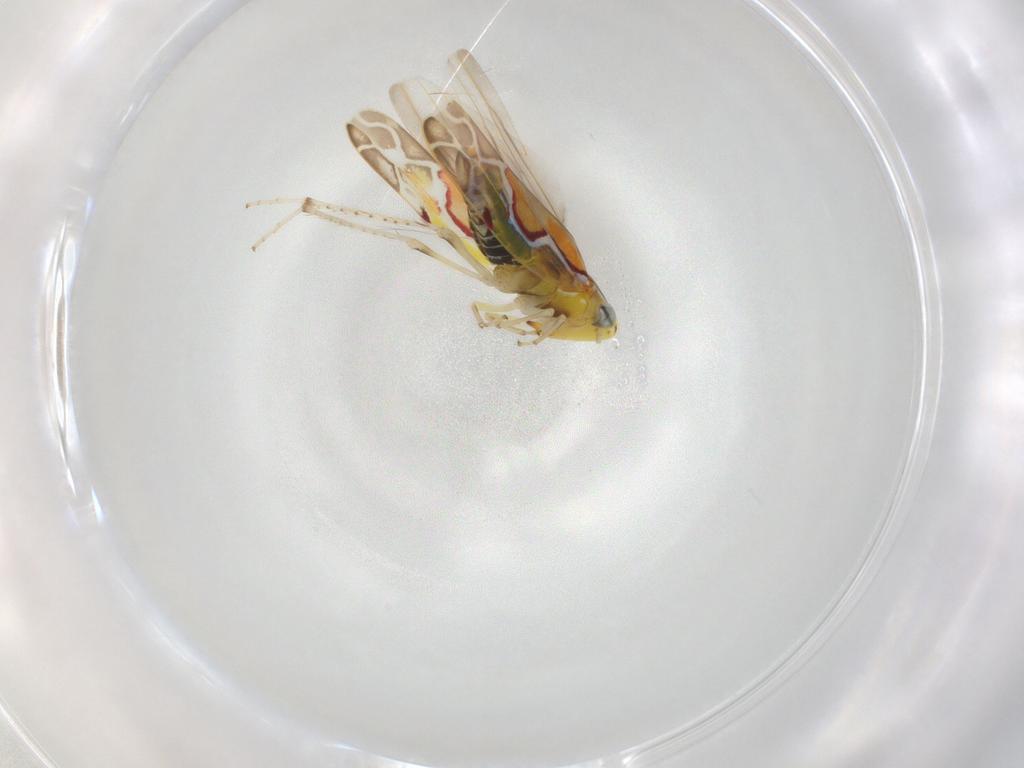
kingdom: Animalia
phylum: Arthropoda
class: Insecta
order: Hemiptera
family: Cicadellidae
